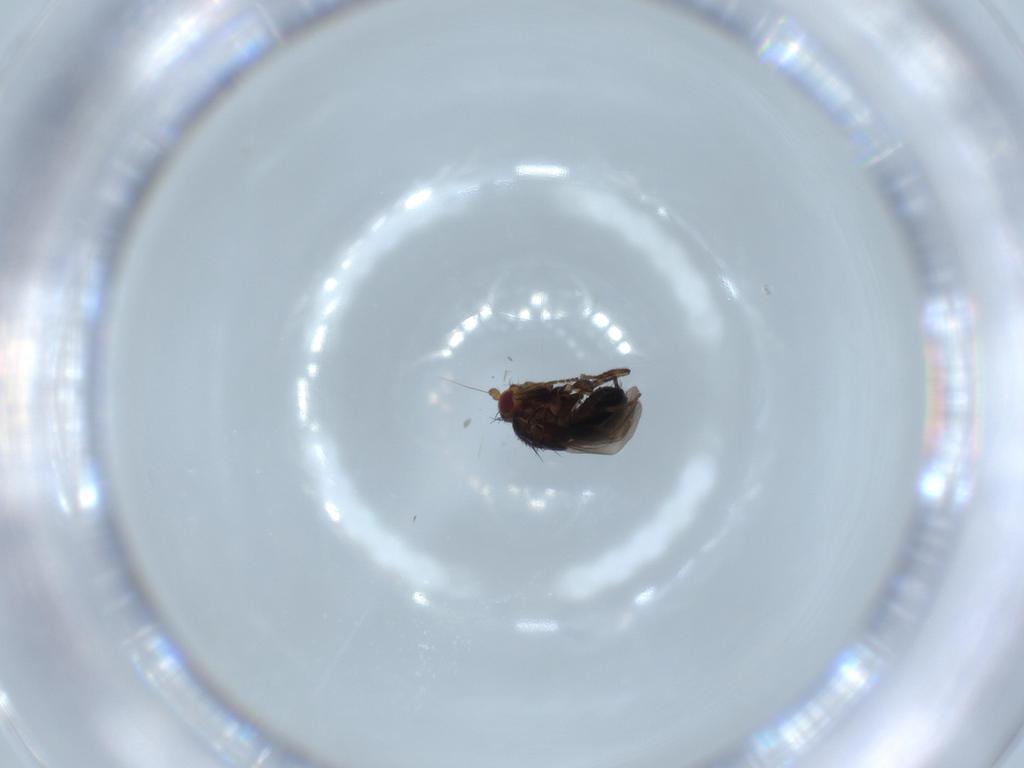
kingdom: Animalia
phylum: Arthropoda
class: Insecta
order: Diptera
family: Sphaeroceridae
